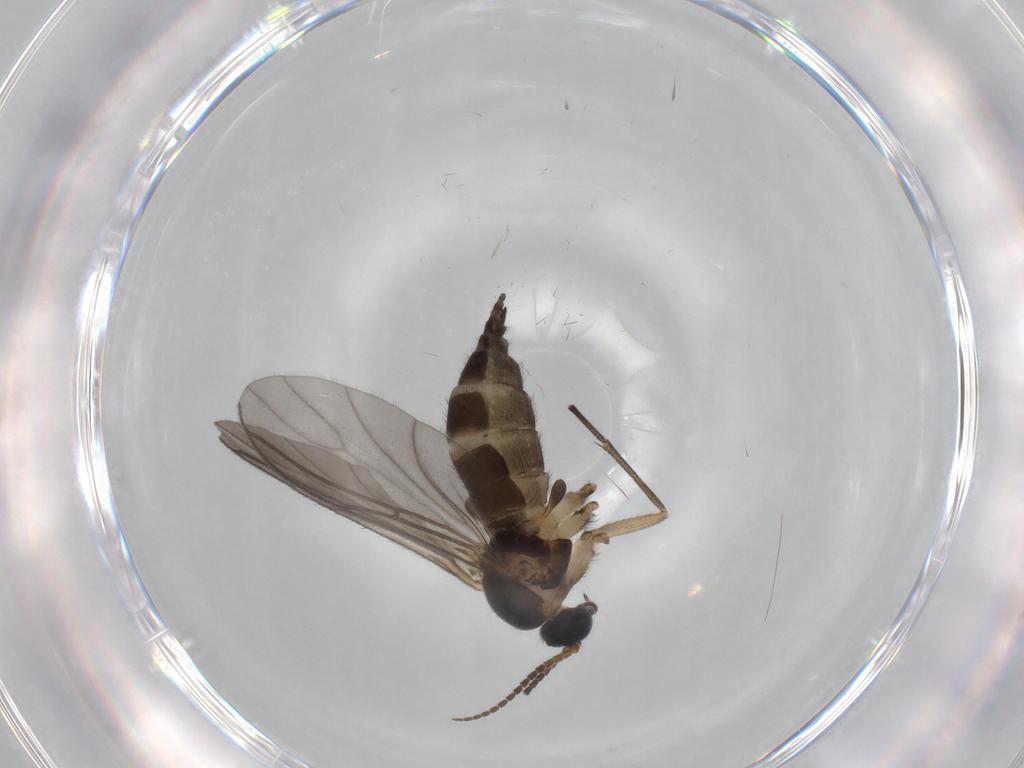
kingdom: Animalia
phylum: Arthropoda
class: Insecta
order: Diptera
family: Sciaridae
